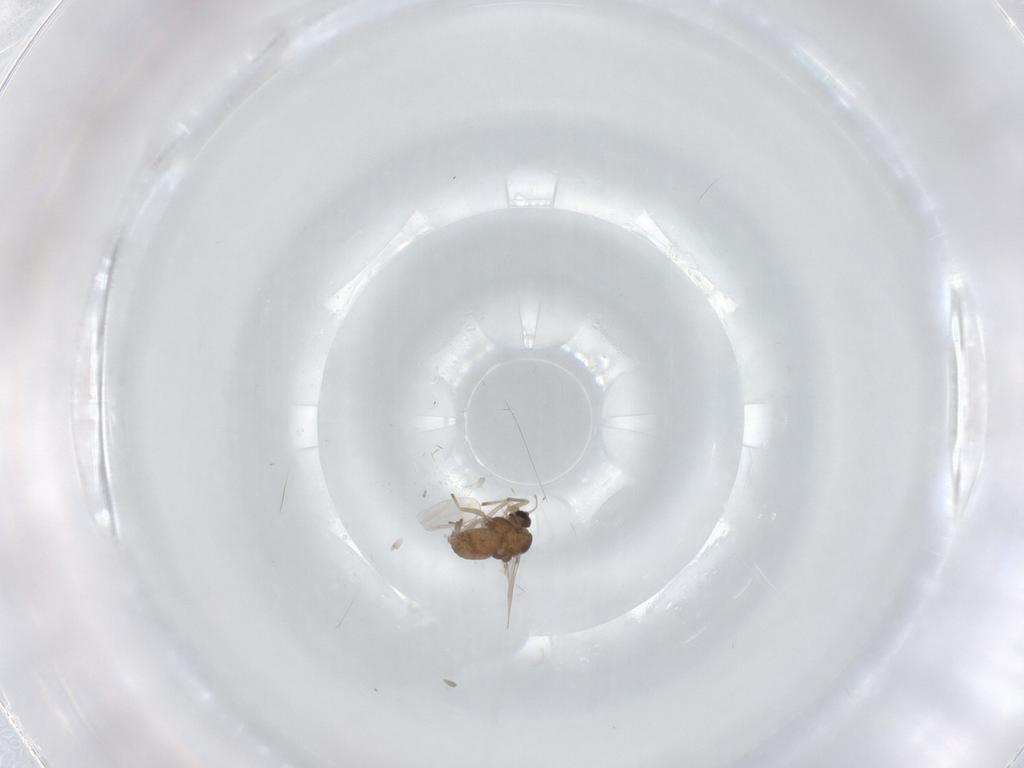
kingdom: Animalia
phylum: Arthropoda
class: Insecta
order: Diptera
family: Chironomidae
